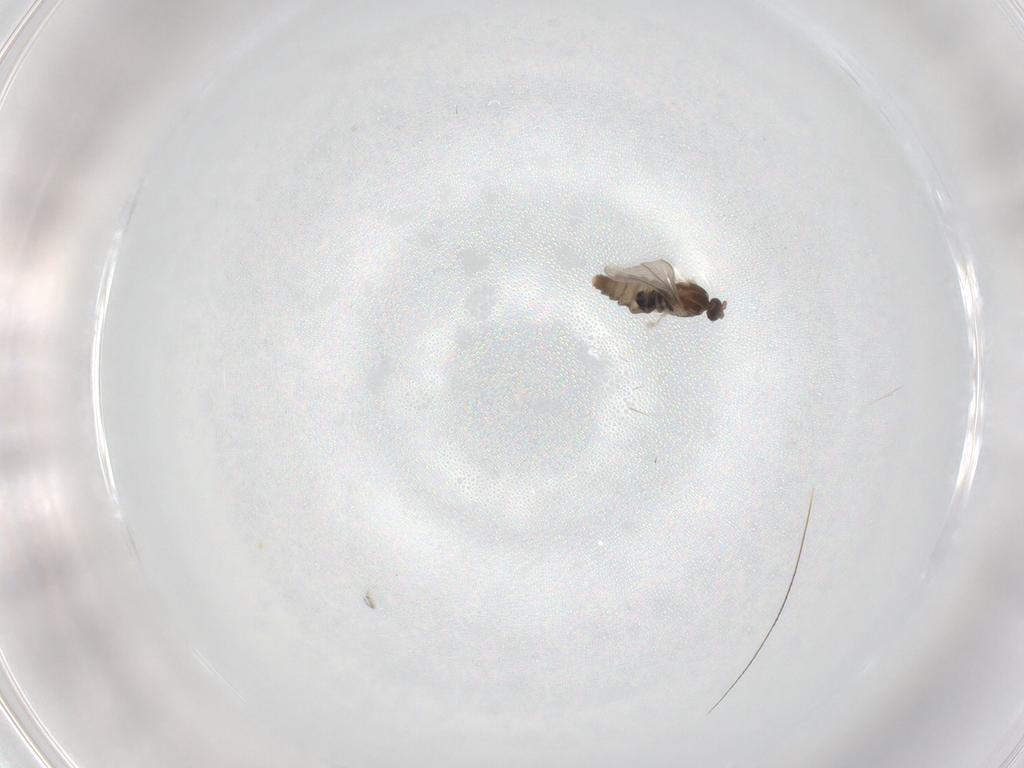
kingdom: Animalia
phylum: Arthropoda
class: Insecta
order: Diptera
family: Cecidomyiidae
